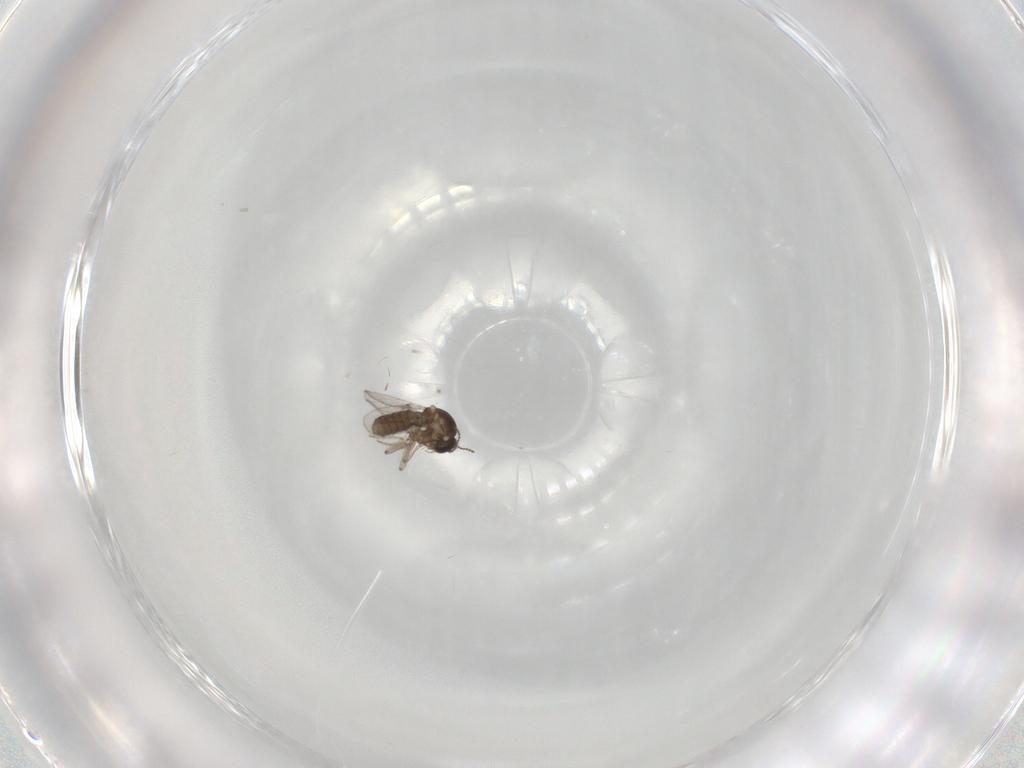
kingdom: Animalia
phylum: Arthropoda
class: Insecta
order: Diptera
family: Ceratopogonidae
